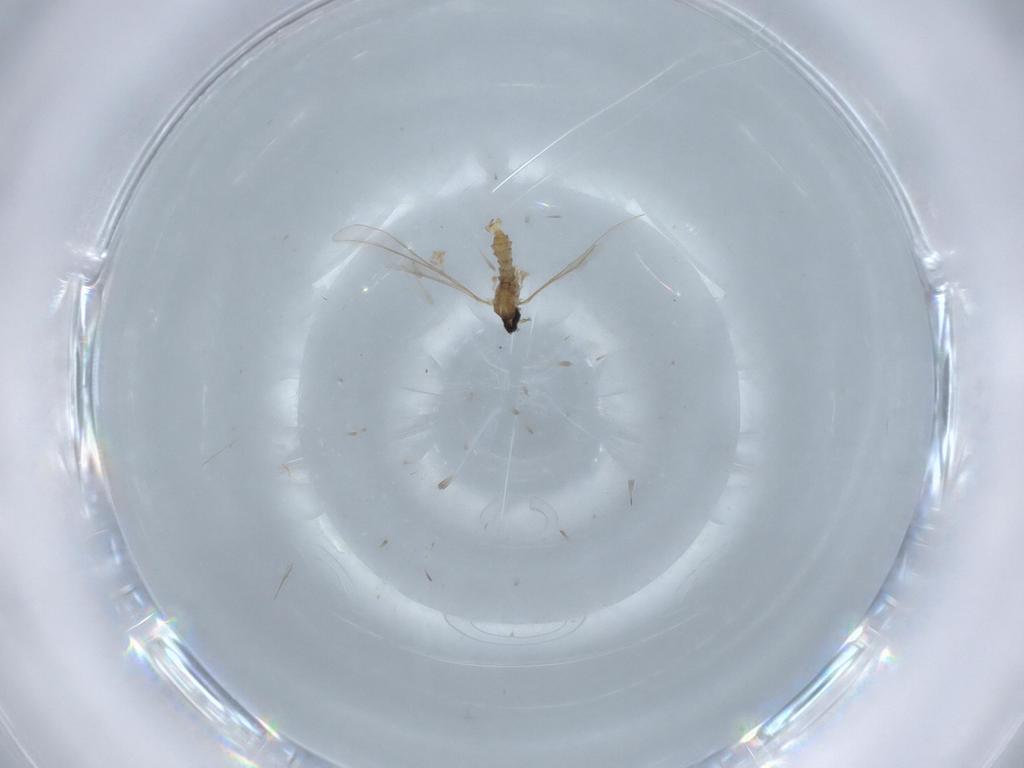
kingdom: Animalia
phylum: Arthropoda
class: Insecta
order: Diptera
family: Cecidomyiidae
